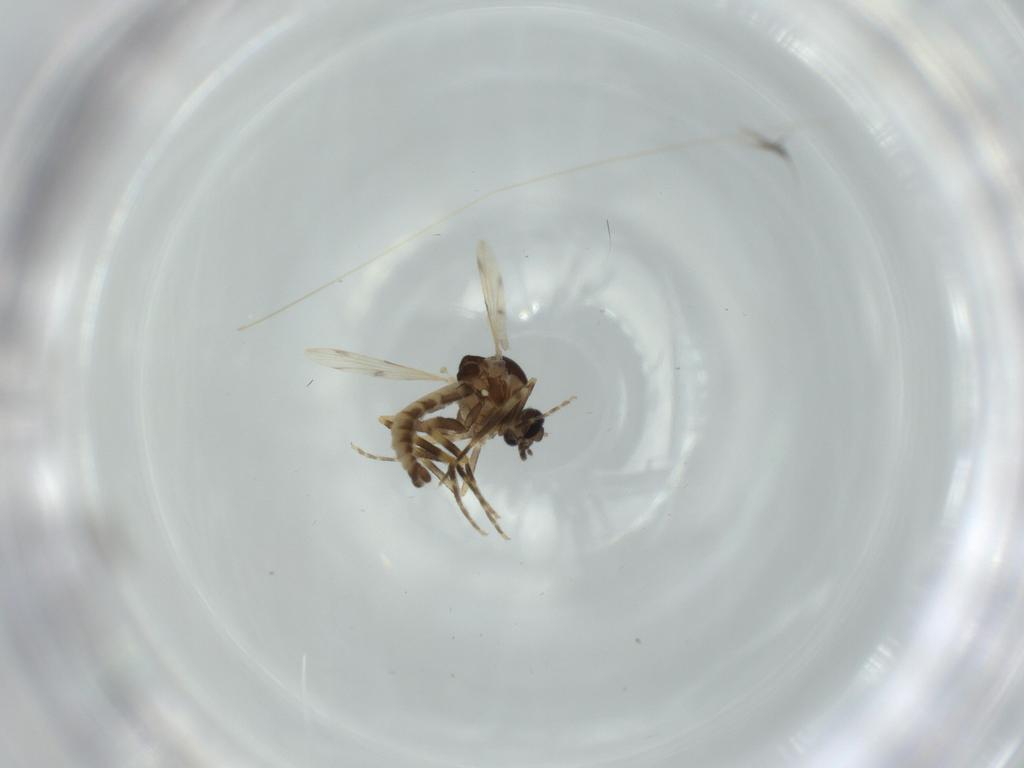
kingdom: Animalia
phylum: Arthropoda
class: Insecta
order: Diptera
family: Ceratopogonidae
